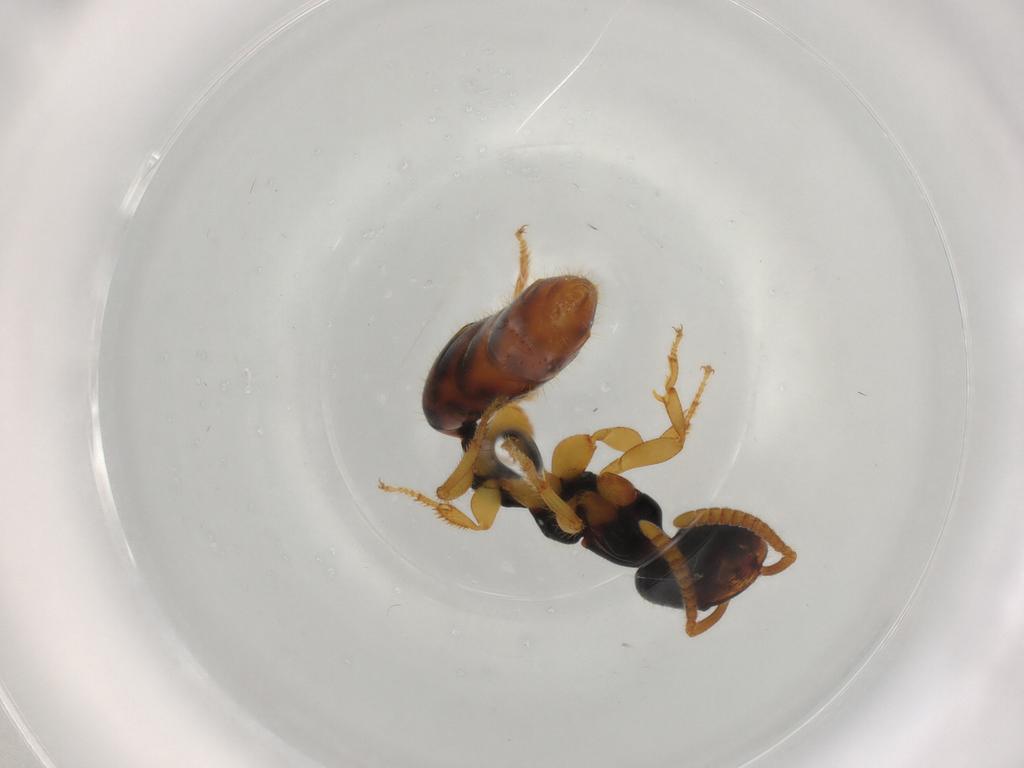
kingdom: Animalia
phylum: Arthropoda
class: Insecta
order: Hymenoptera
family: Bethylidae
